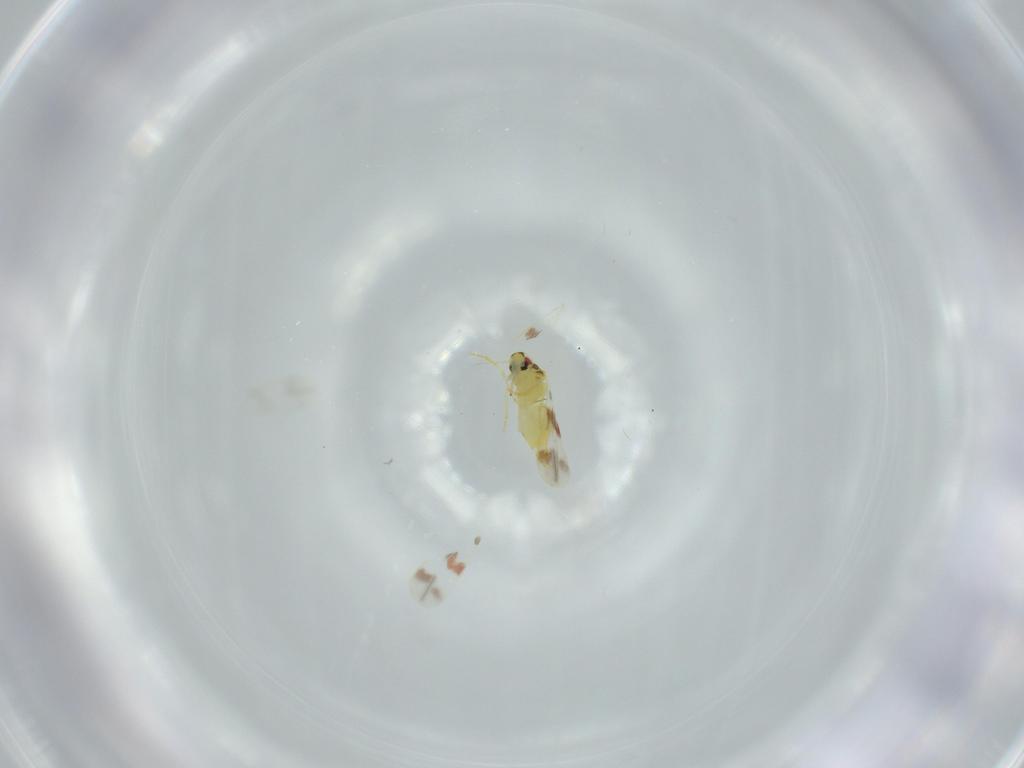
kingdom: Animalia
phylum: Arthropoda
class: Insecta
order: Hemiptera
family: Aleyrodidae
